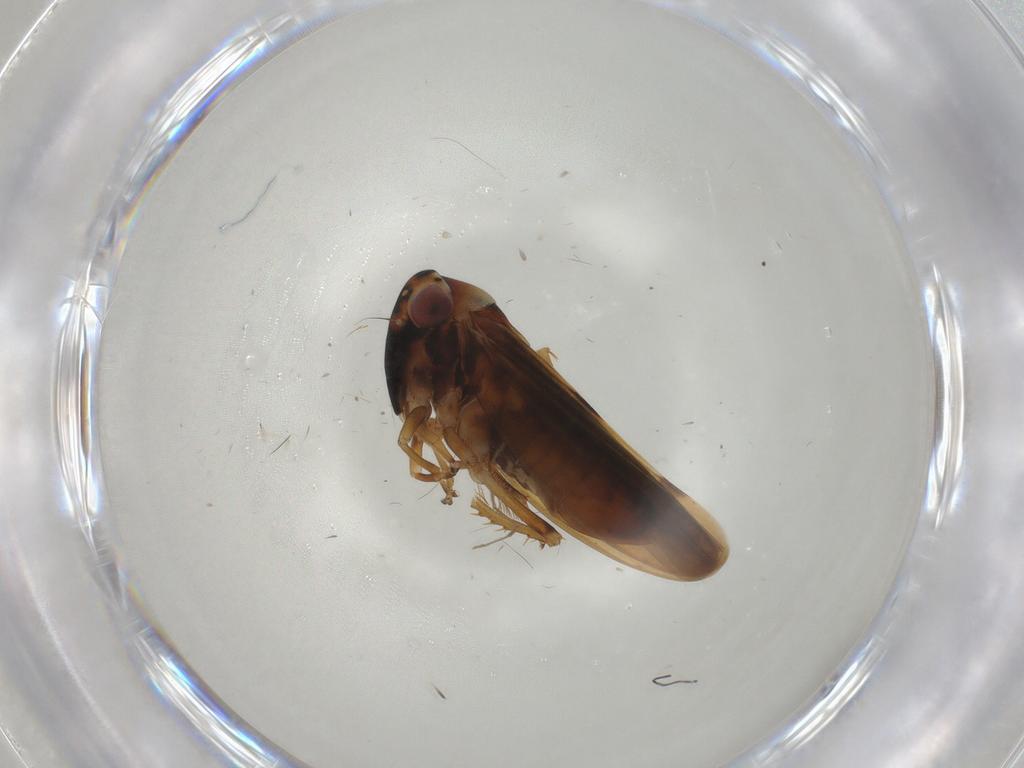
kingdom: Animalia
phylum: Arthropoda
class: Insecta
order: Hemiptera
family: Cicadellidae
